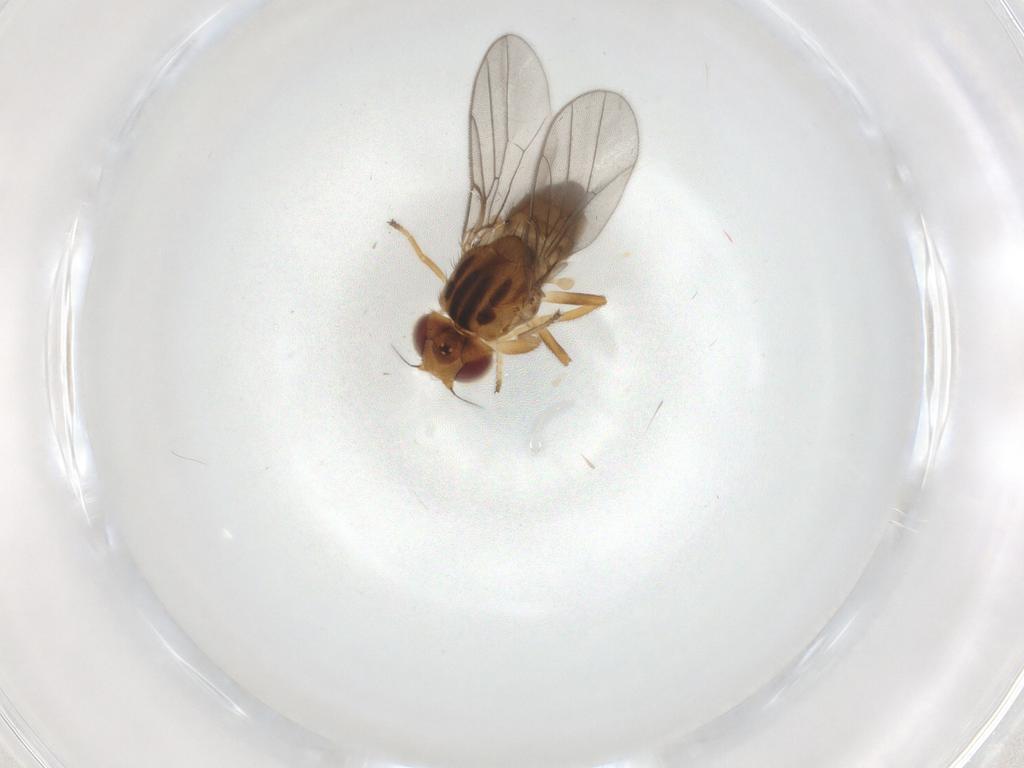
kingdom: Animalia
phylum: Arthropoda
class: Insecta
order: Diptera
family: Chloropidae
